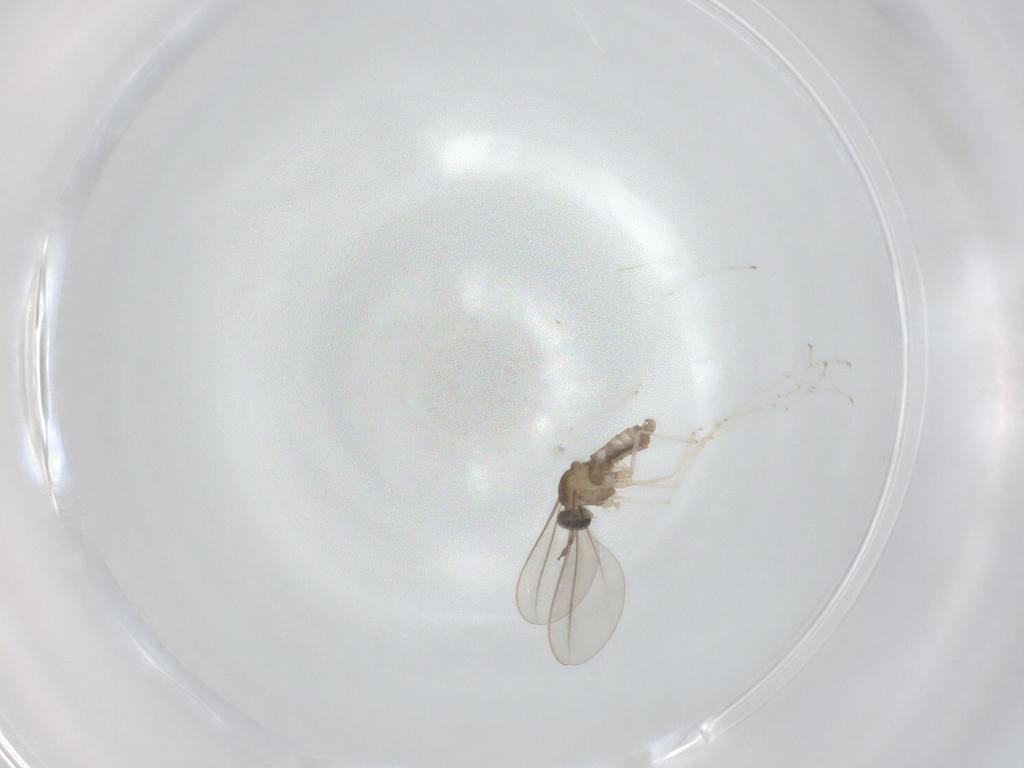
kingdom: Animalia
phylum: Arthropoda
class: Insecta
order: Diptera
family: Cecidomyiidae
